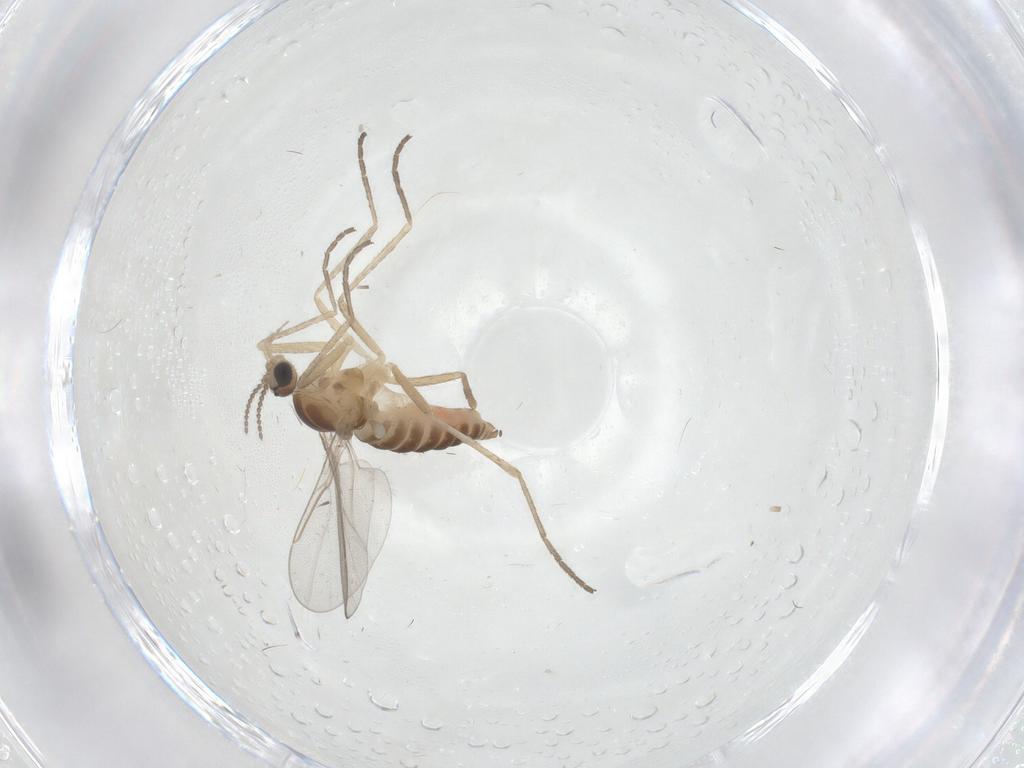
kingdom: Animalia
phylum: Arthropoda
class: Insecta
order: Diptera
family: Cecidomyiidae
